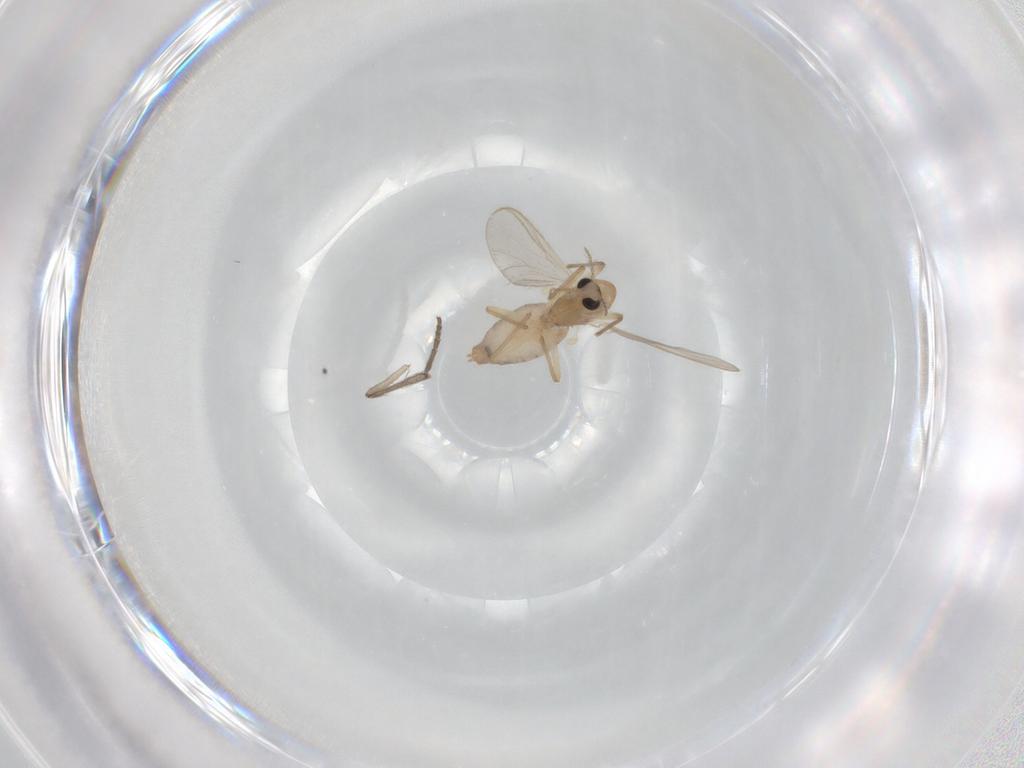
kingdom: Animalia
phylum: Arthropoda
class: Insecta
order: Diptera
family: Chironomidae
